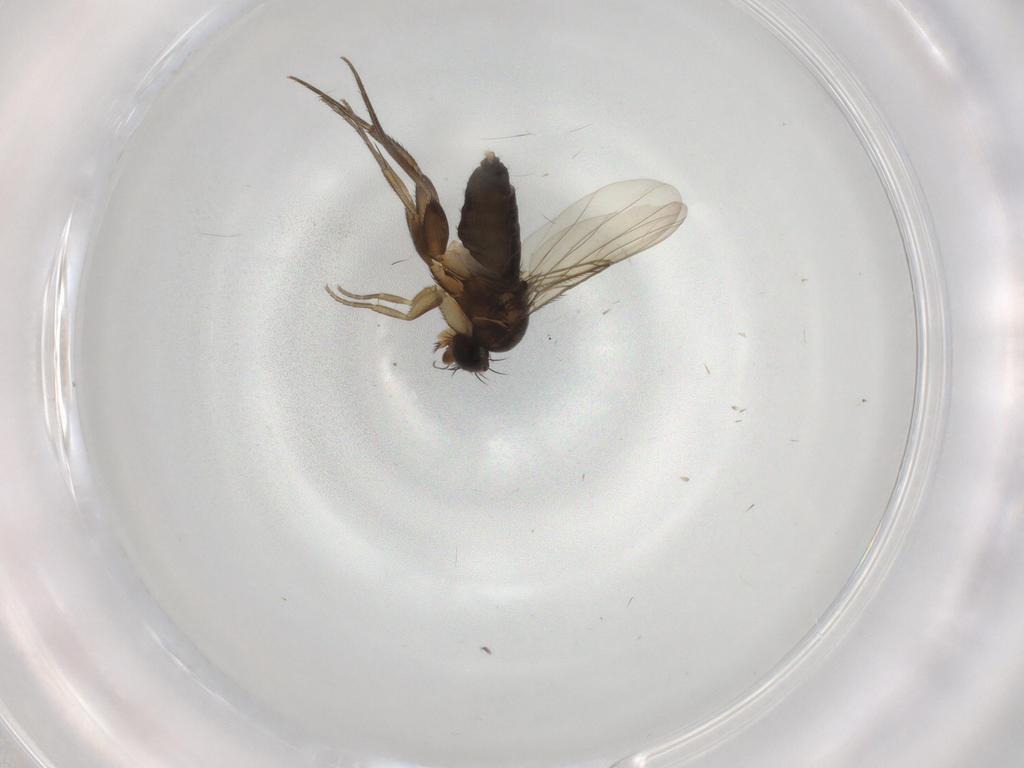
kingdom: Animalia
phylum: Arthropoda
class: Insecta
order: Diptera
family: Phoridae
